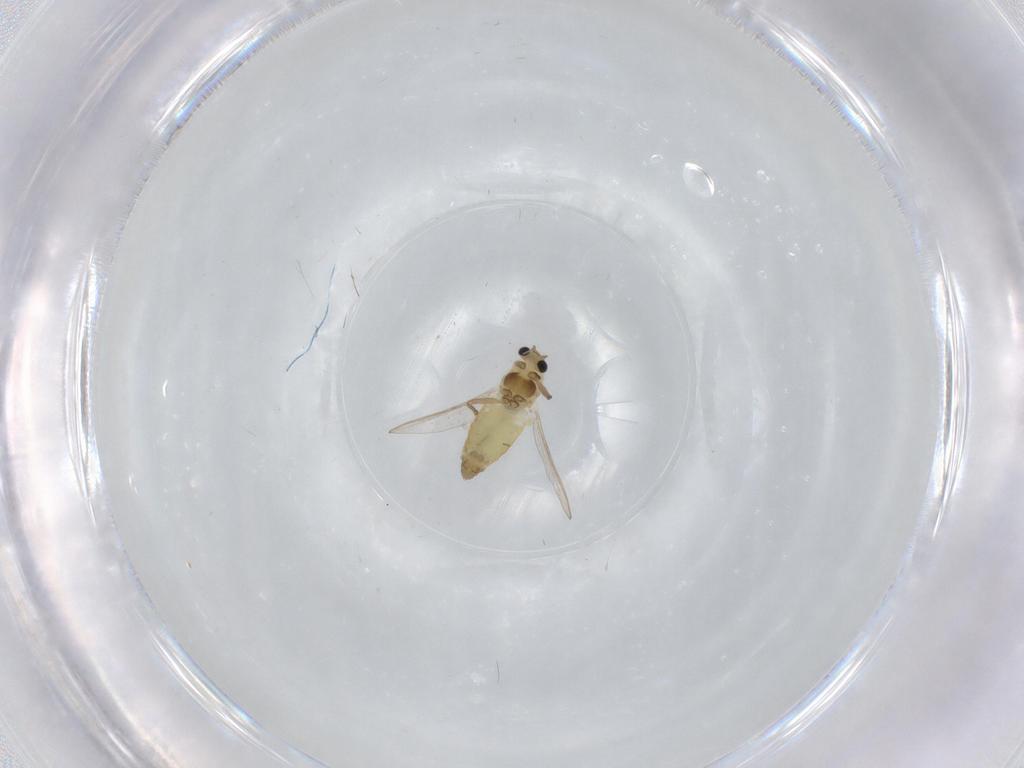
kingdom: Animalia
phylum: Arthropoda
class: Insecta
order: Diptera
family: Chironomidae
